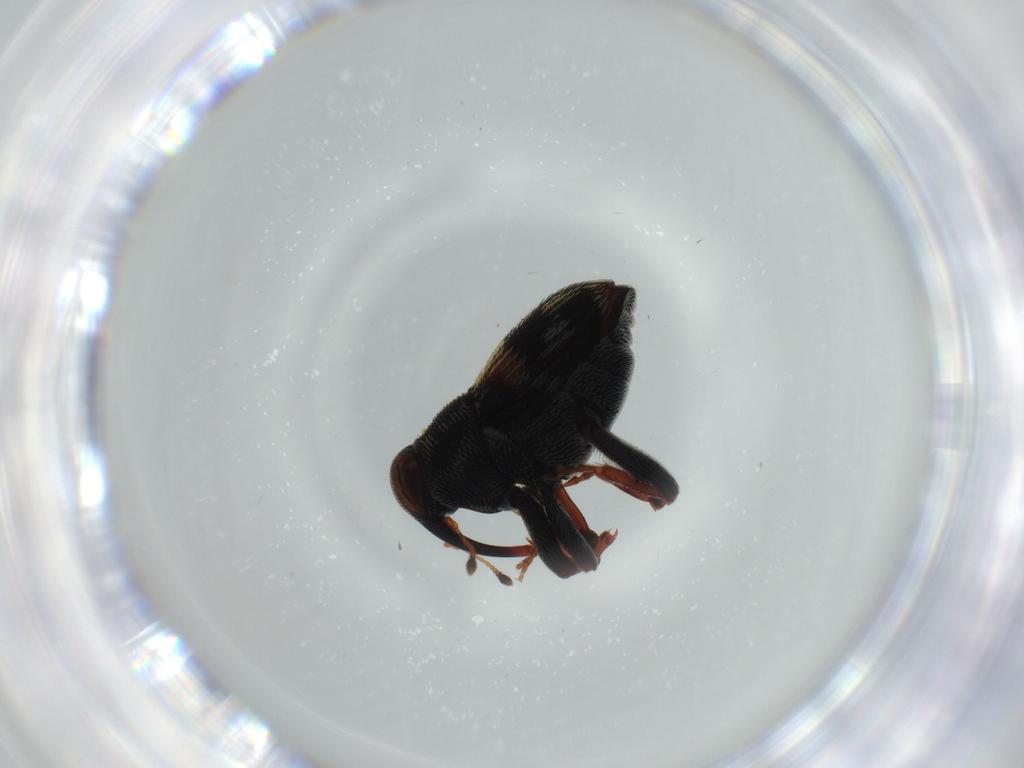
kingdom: Animalia
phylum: Arthropoda
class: Insecta
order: Coleoptera
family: Curculionidae
